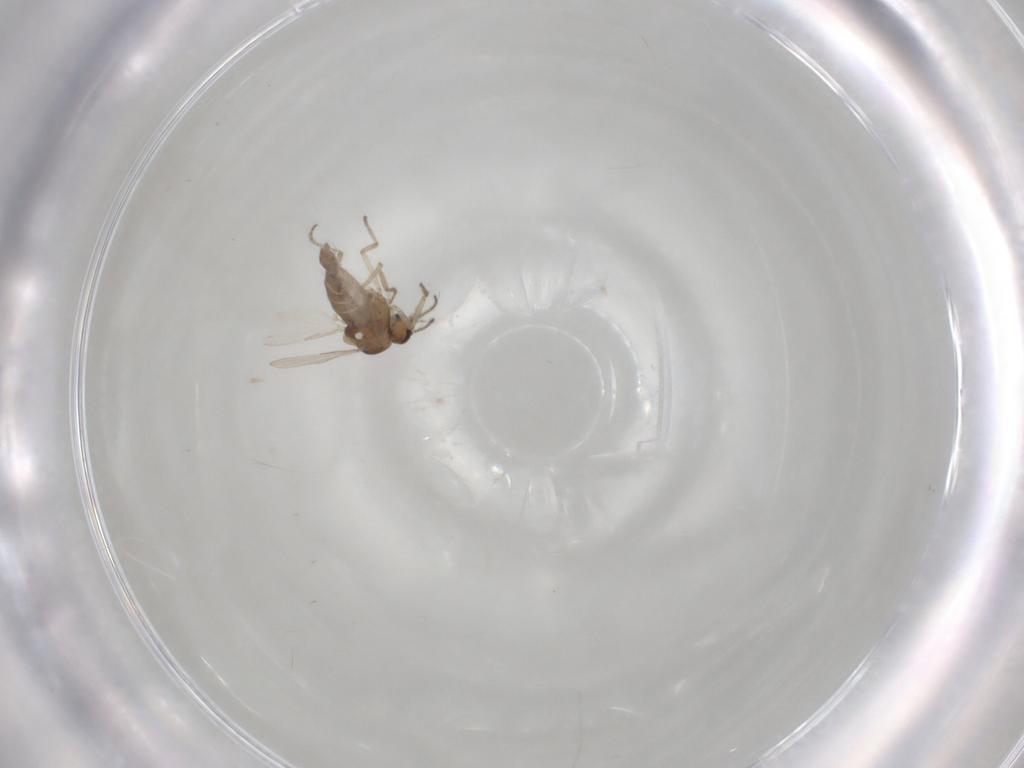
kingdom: Animalia
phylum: Arthropoda
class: Insecta
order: Diptera
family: Ceratopogonidae
